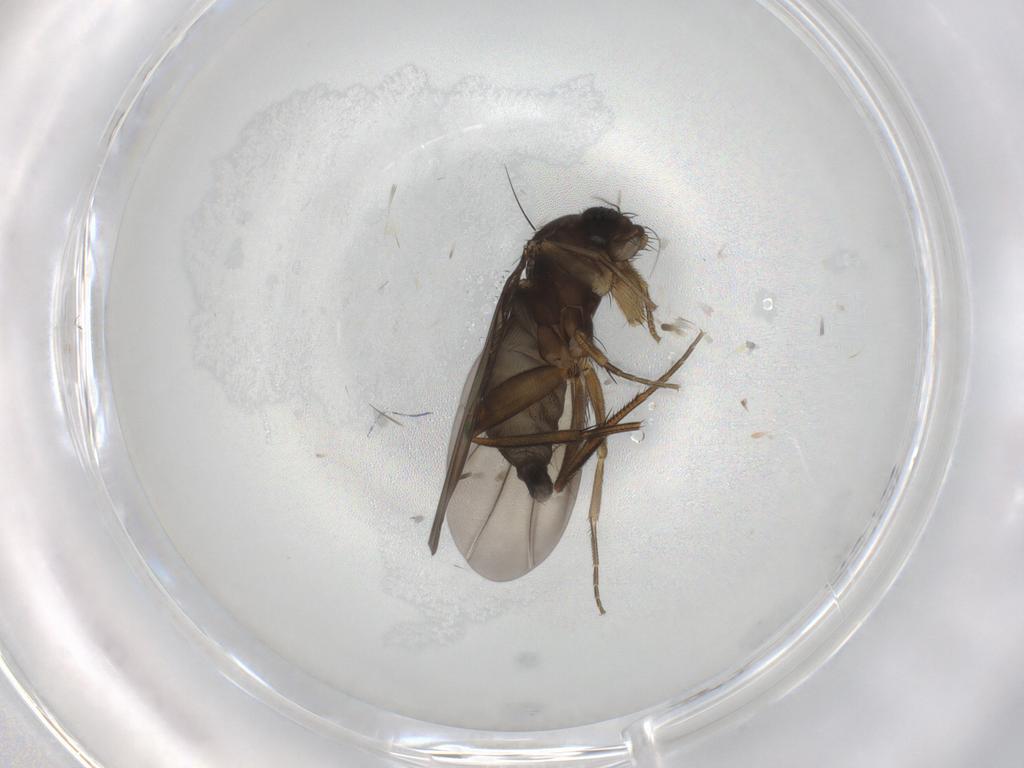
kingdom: Animalia
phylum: Arthropoda
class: Insecta
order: Diptera
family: Phoridae
